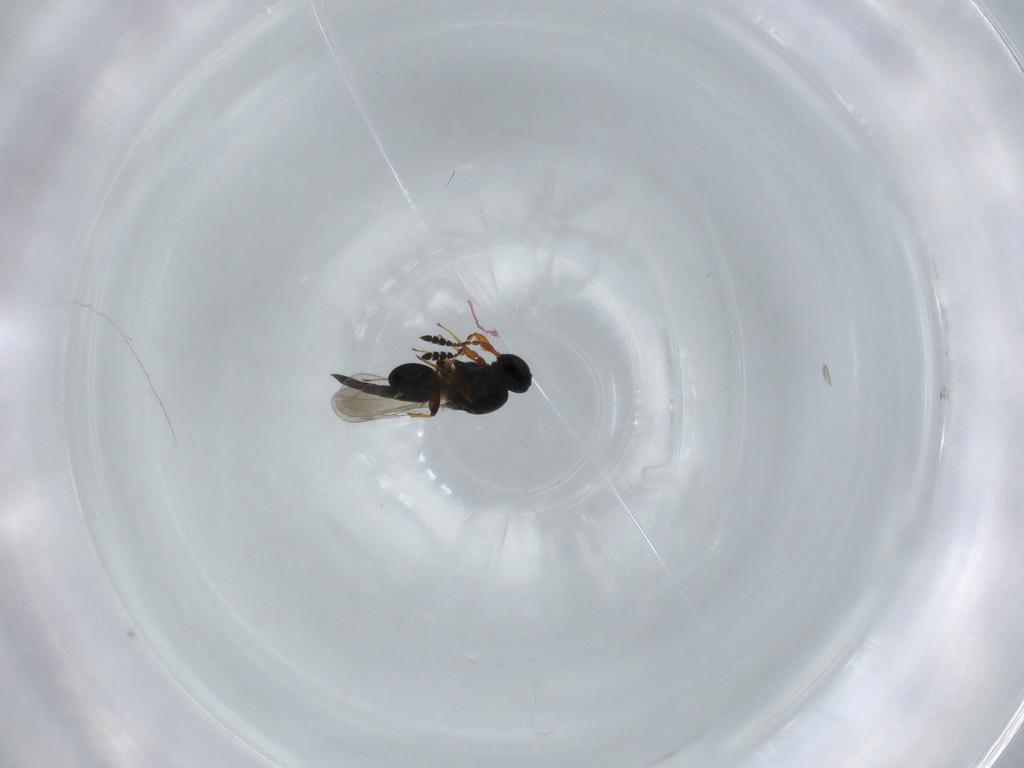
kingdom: Animalia
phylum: Arthropoda
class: Insecta
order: Hymenoptera
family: Platygastridae
